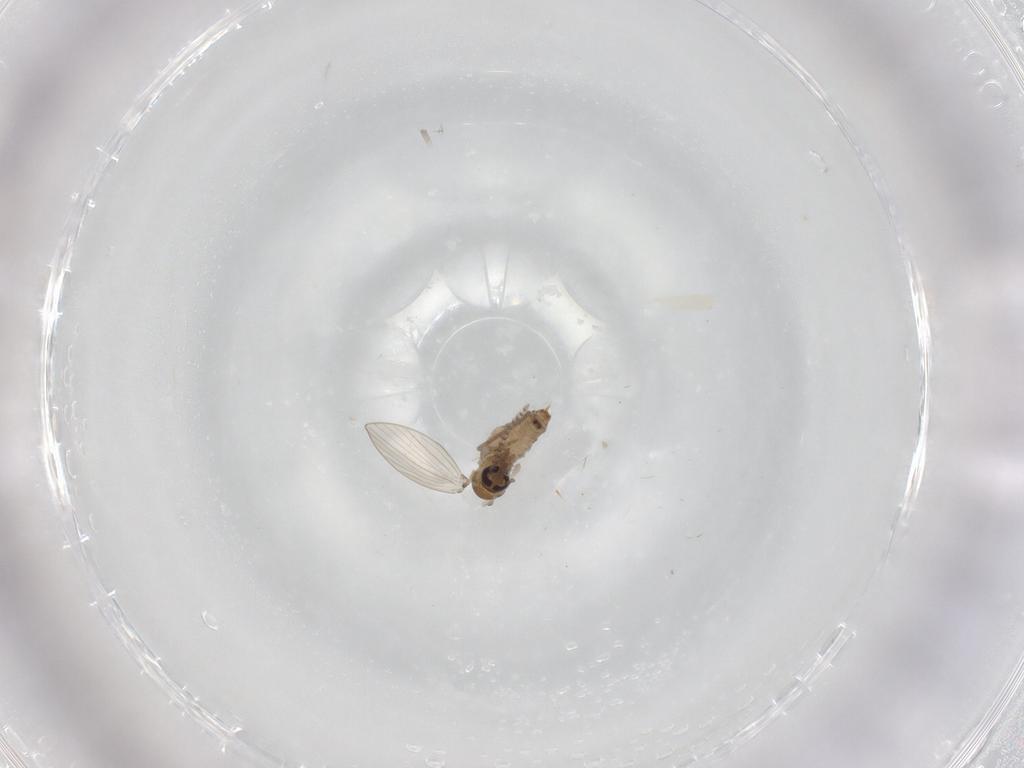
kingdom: Animalia
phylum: Arthropoda
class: Insecta
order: Diptera
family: Psychodidae
